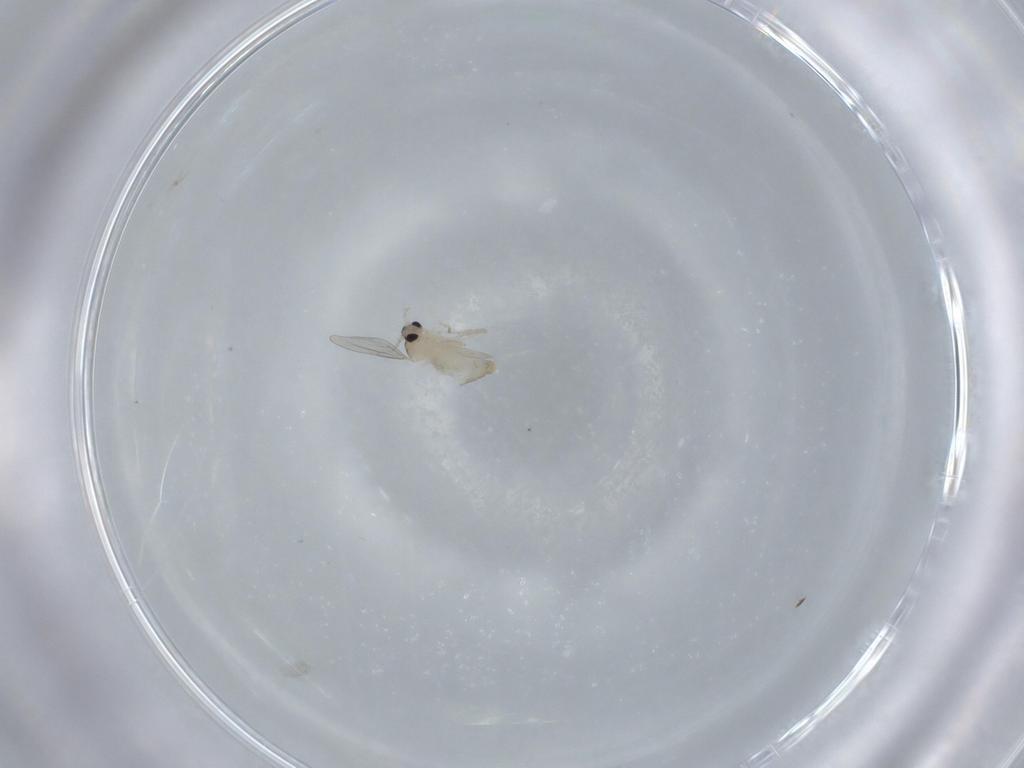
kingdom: Animalia
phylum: Arthropoda
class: Insecta
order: Diptera
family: Cecidomyiidae
